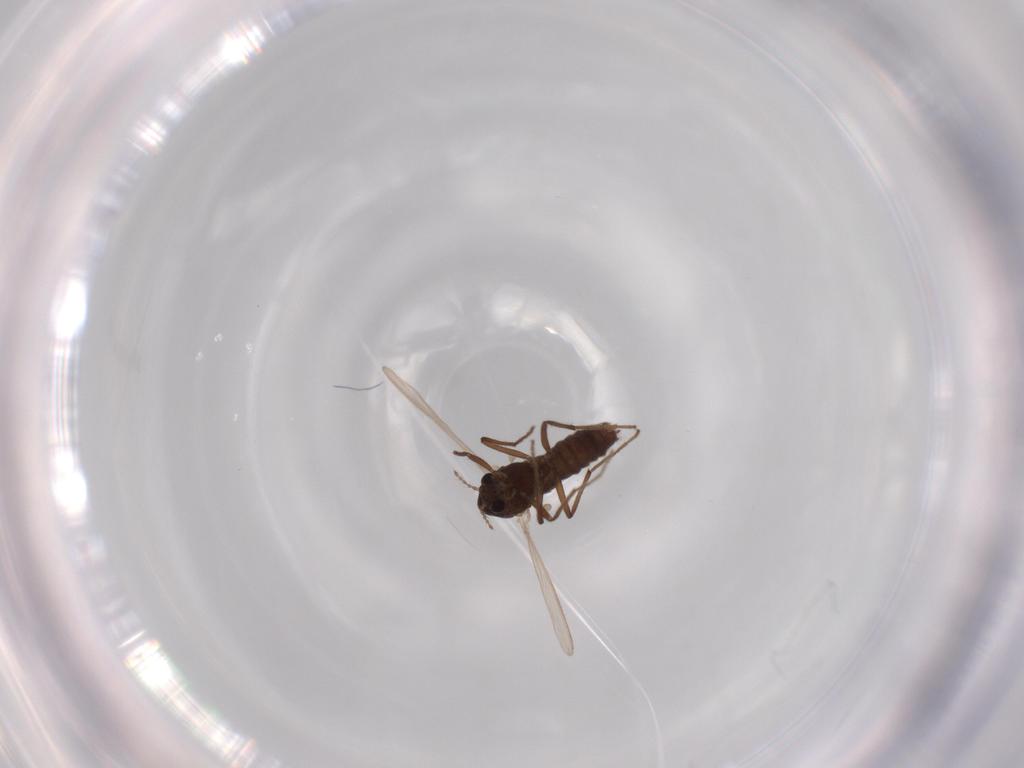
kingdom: Animalia
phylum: Arthropoda
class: Insecta
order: Diptera
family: Chironomidae
